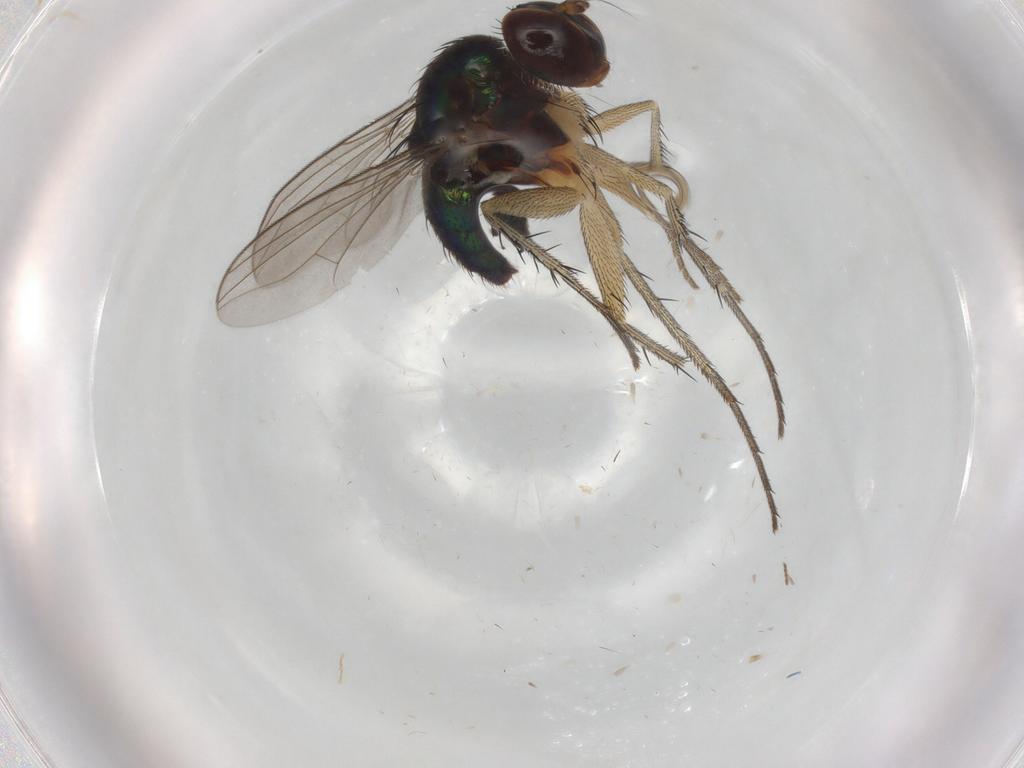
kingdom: Animalia
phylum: Arthropoda
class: Insecta
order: Diptera
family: Dolichopodidae
